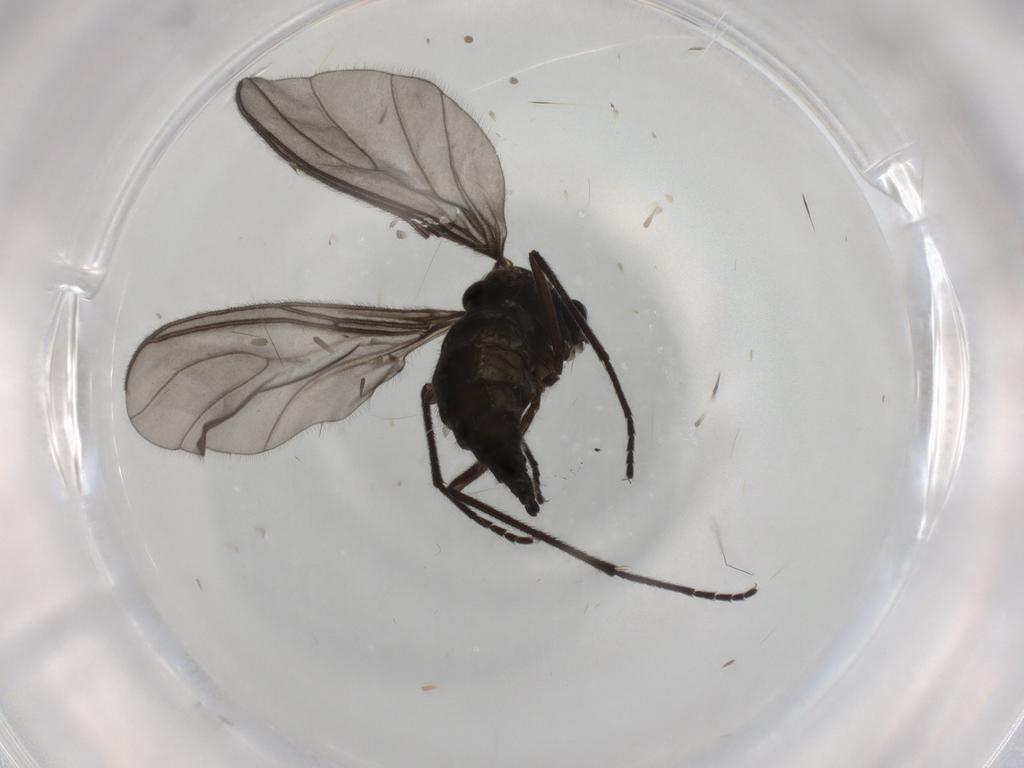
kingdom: Animalia
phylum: Arthropoda
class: Insecta
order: Diptera
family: Sciaridae
